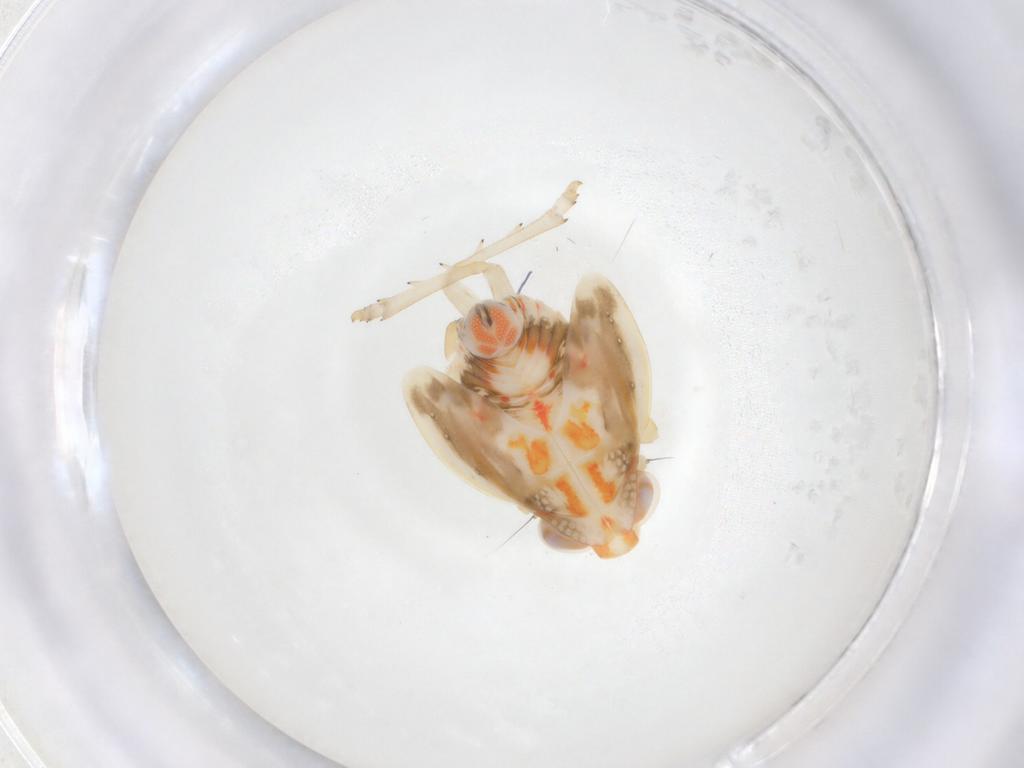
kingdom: Animalia
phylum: Arthropoda
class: Insecta
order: Hemiptera
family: Nogodinidae
